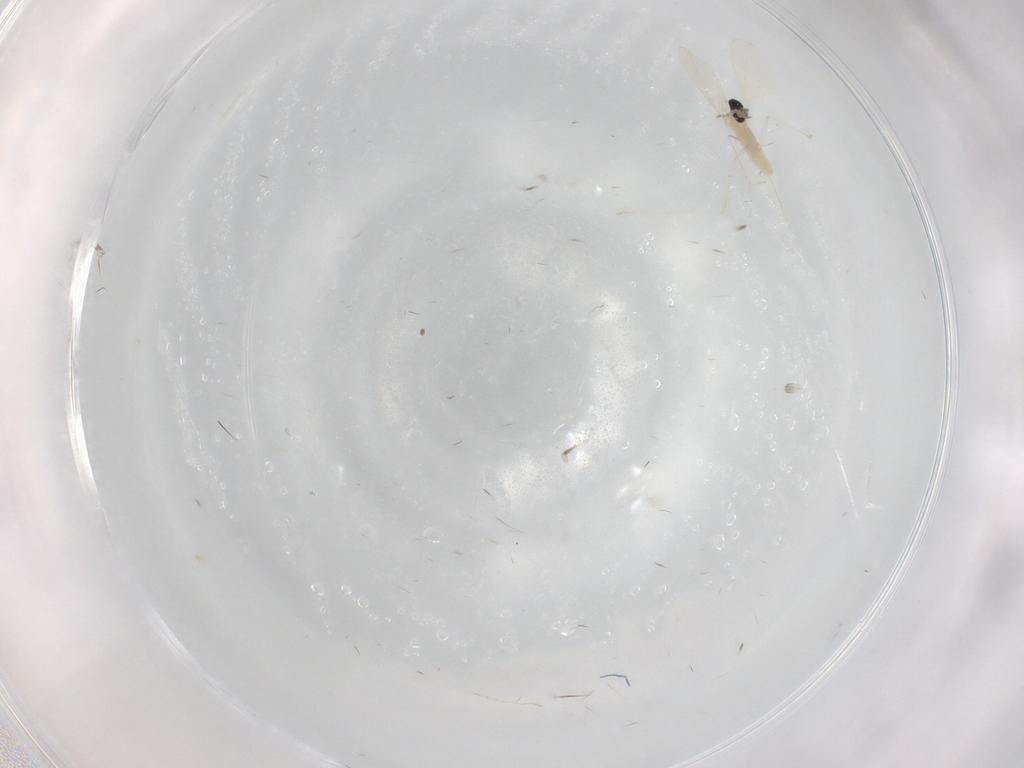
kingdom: Animalia
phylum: Arthropoda
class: Insecta
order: Diptera
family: Cecidomyiidae
